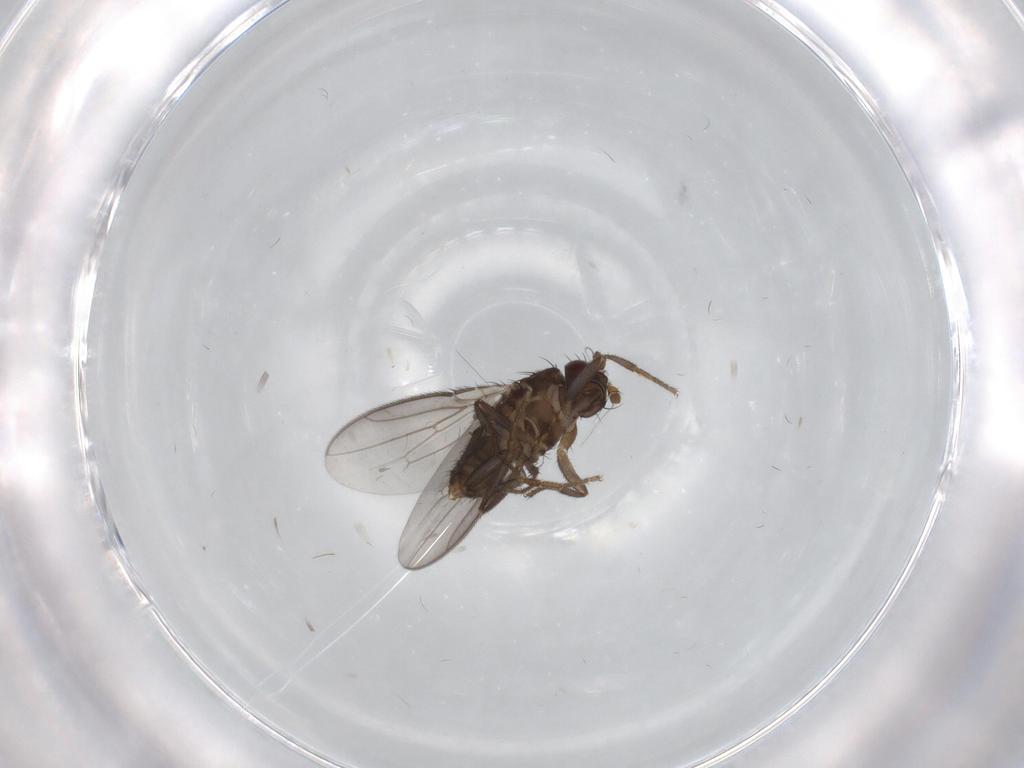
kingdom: Animalia
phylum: Arthropoda
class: Insecta
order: Diptera
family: Sphaeroceridae
